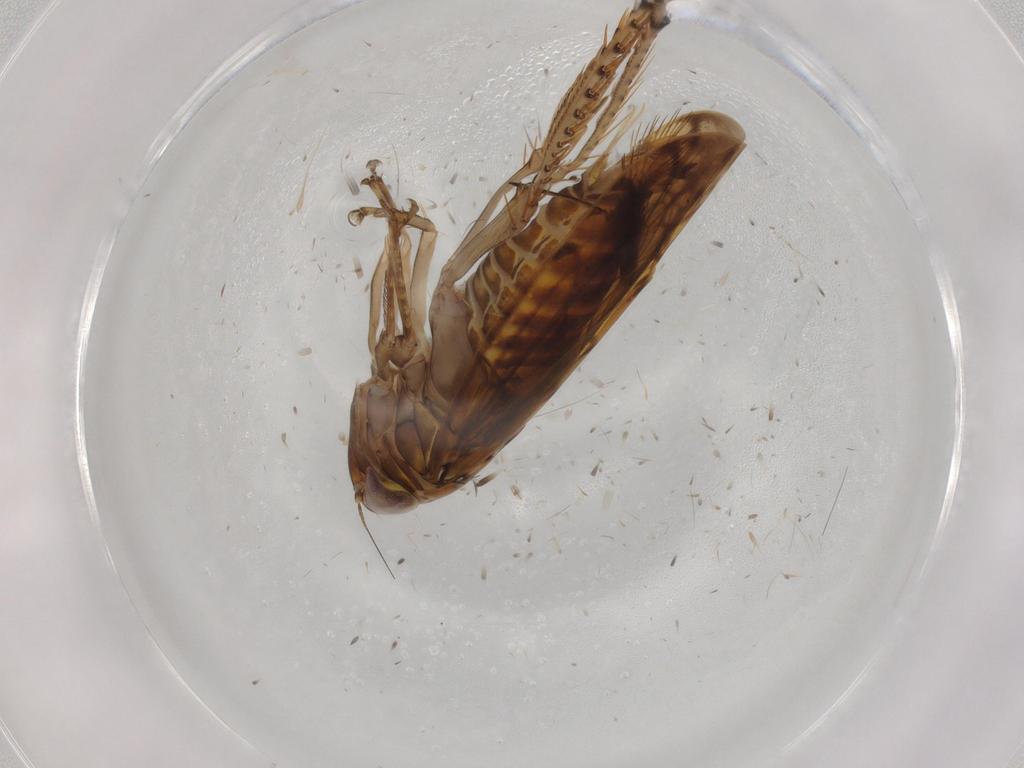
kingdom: Animalia
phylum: Arthropoda
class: Insecta
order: Hemiptera
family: Cicadellidae
